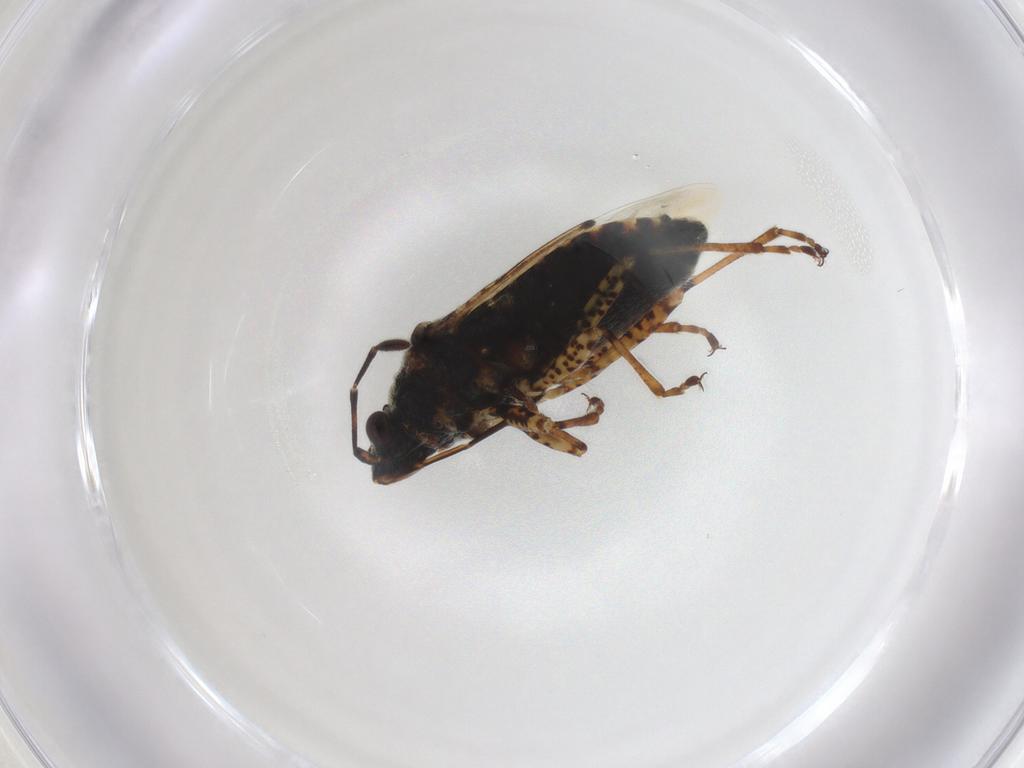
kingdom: Animalia
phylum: Arthropoda
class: Insecta
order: Hemiptera
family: Lygaeidae
